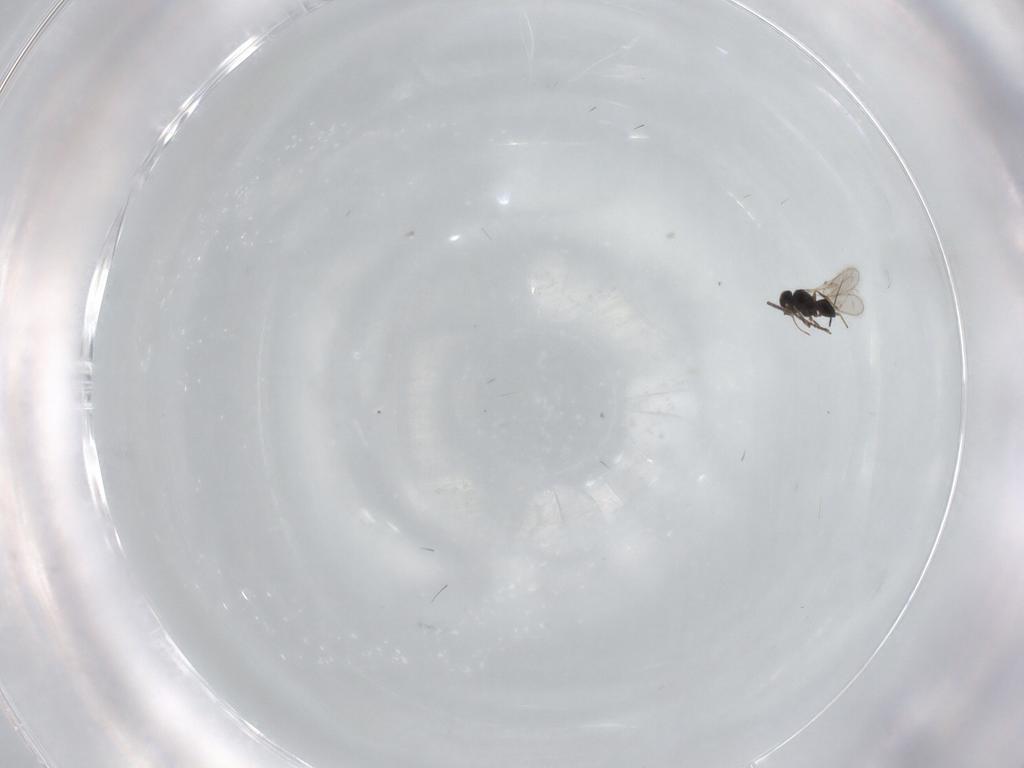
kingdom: Animalia
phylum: Arthropoda
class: Insecta
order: Hymenoptera
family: Scelionidae
